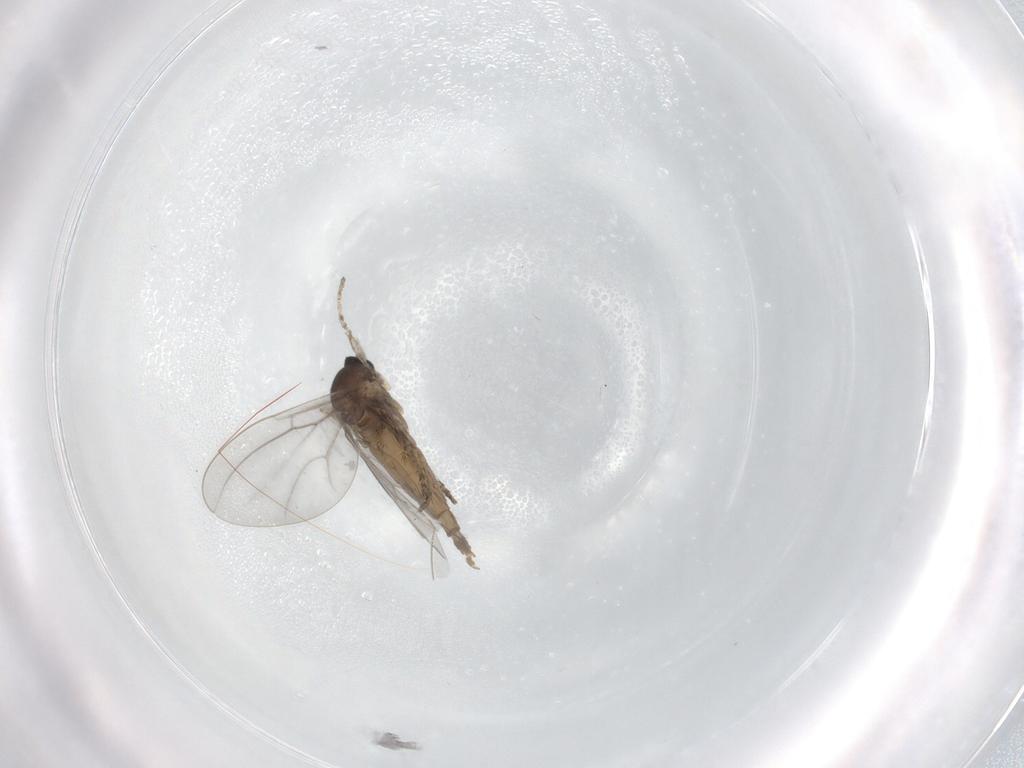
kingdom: Animalia
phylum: Arthropoda
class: Insecta
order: Diptera
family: Cecidomyiidae
